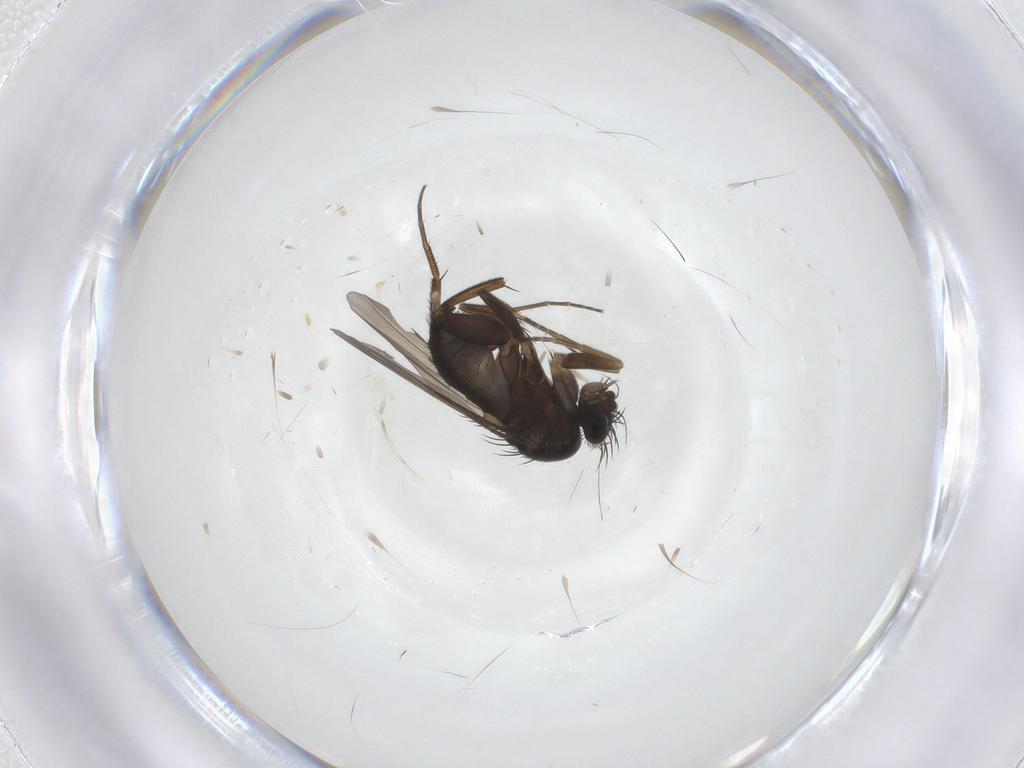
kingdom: Animalia
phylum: Arthropoda
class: Insecta
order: Diptera
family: Phoridae
